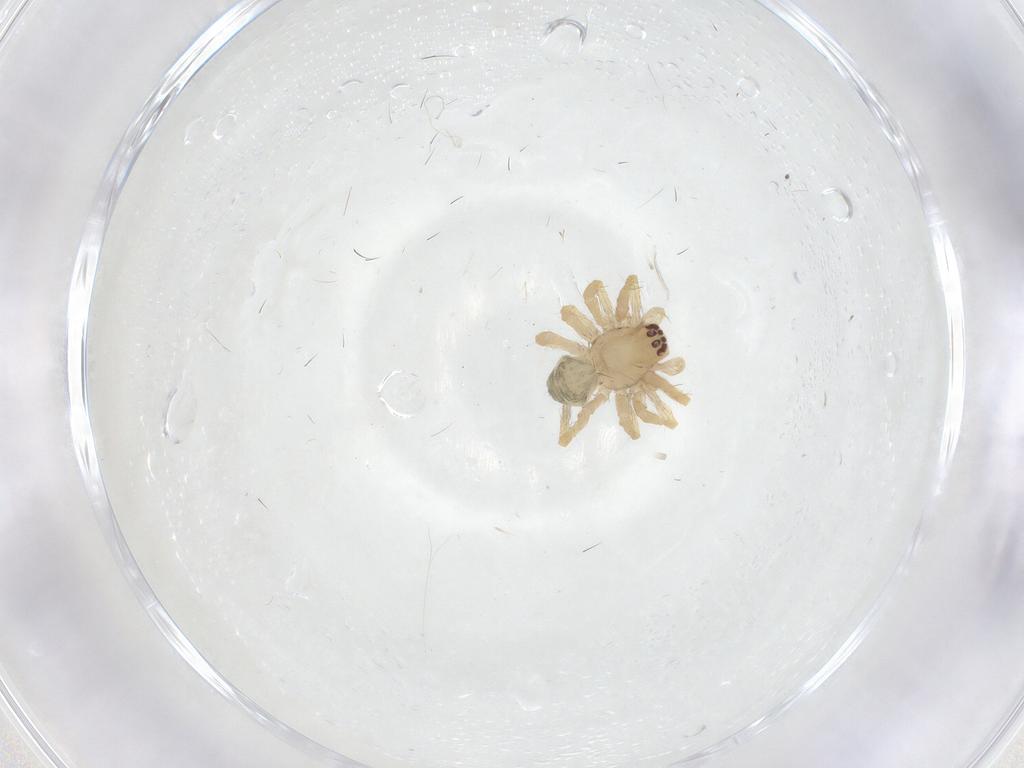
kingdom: Animalia
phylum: Arthropoda
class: Arachnida
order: Araneae
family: Desidae
